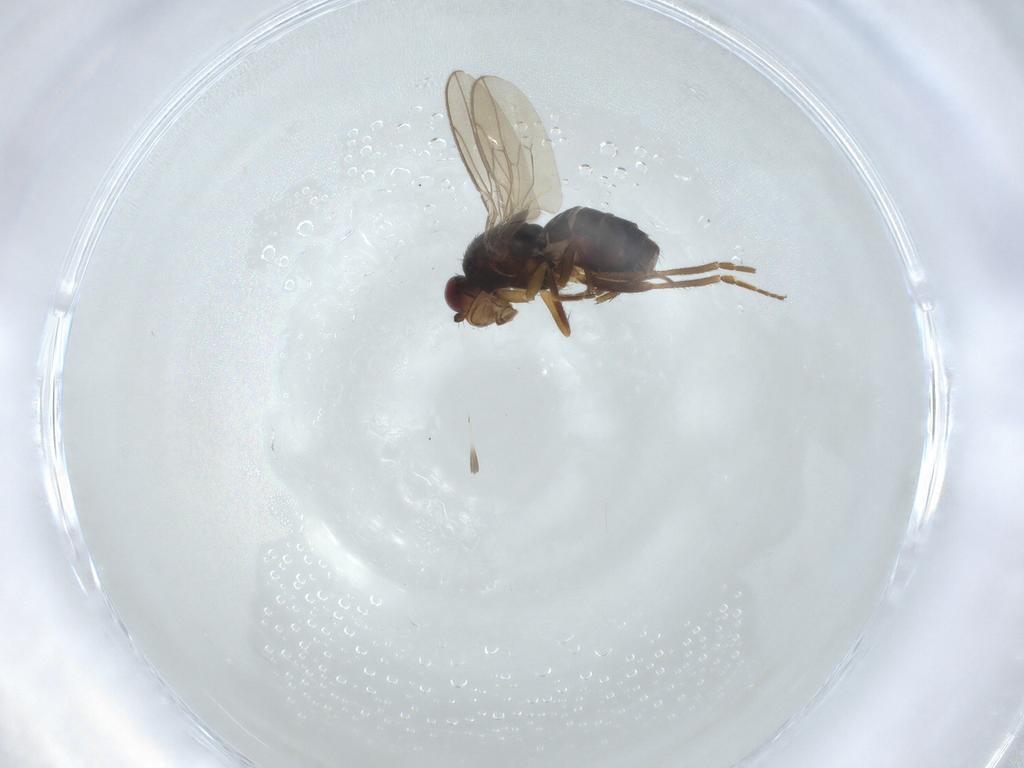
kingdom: Animalia
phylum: Arthropoda
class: Insecta
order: Diptera
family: Sphaeroceridae
